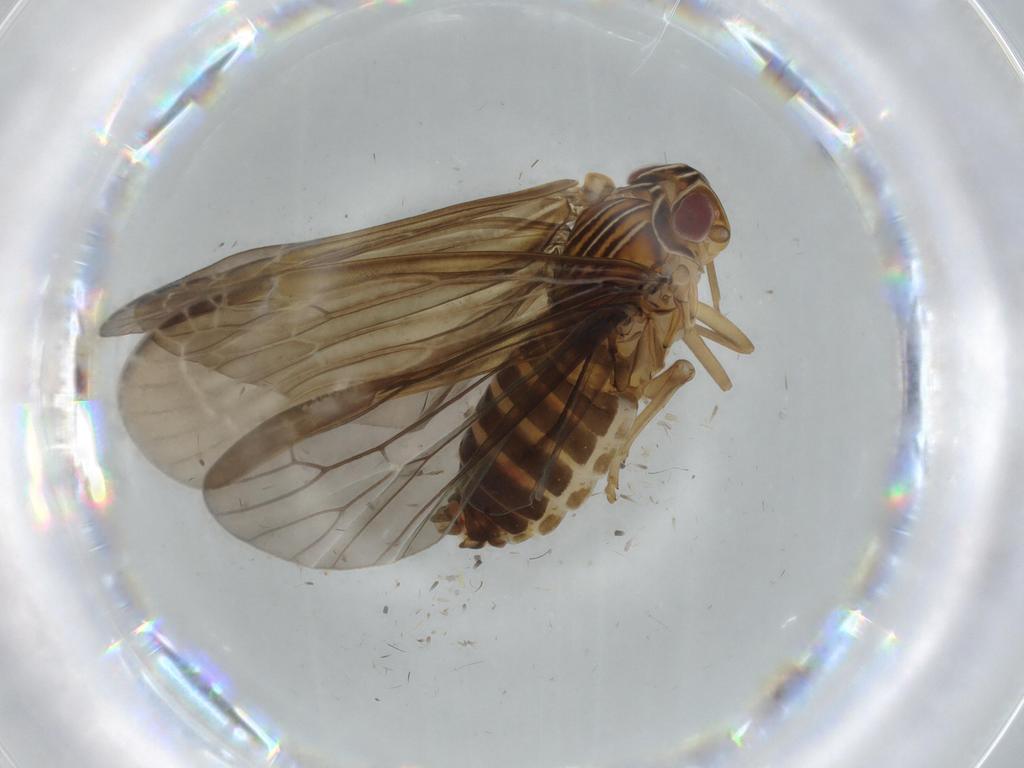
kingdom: Animalia
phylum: Arthropoda
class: Insecta
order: Hemiptera
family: Achilidae
